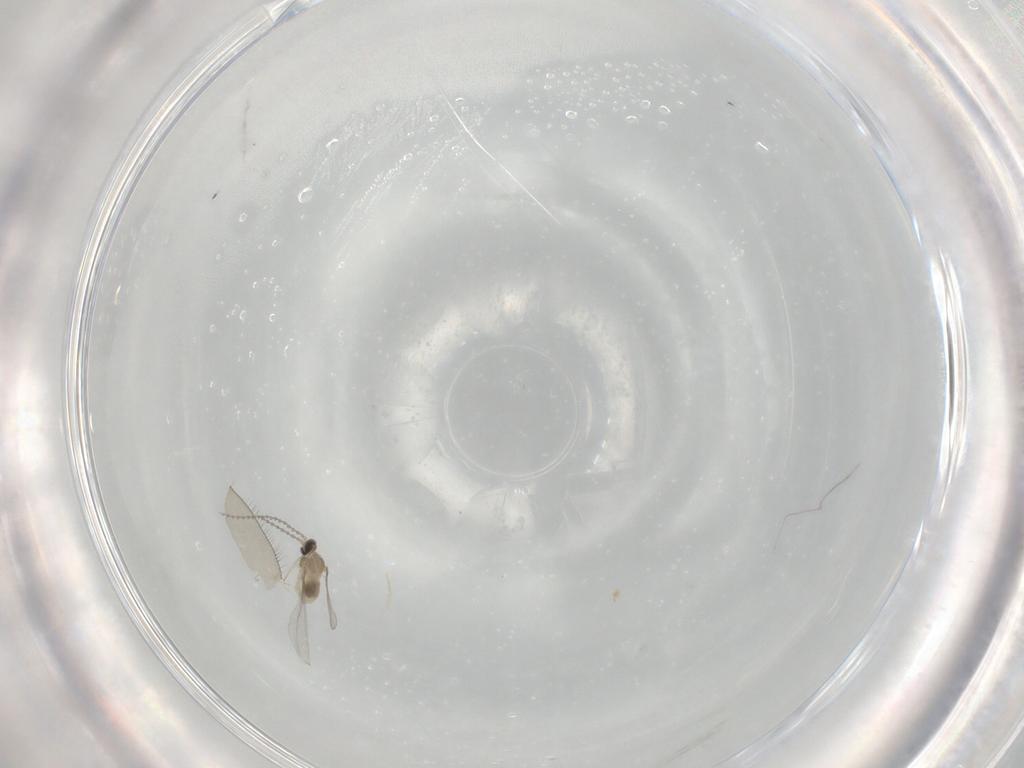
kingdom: Animalia
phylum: Arthropoda
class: Insecta
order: Diptera
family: Cecidomyiidae
